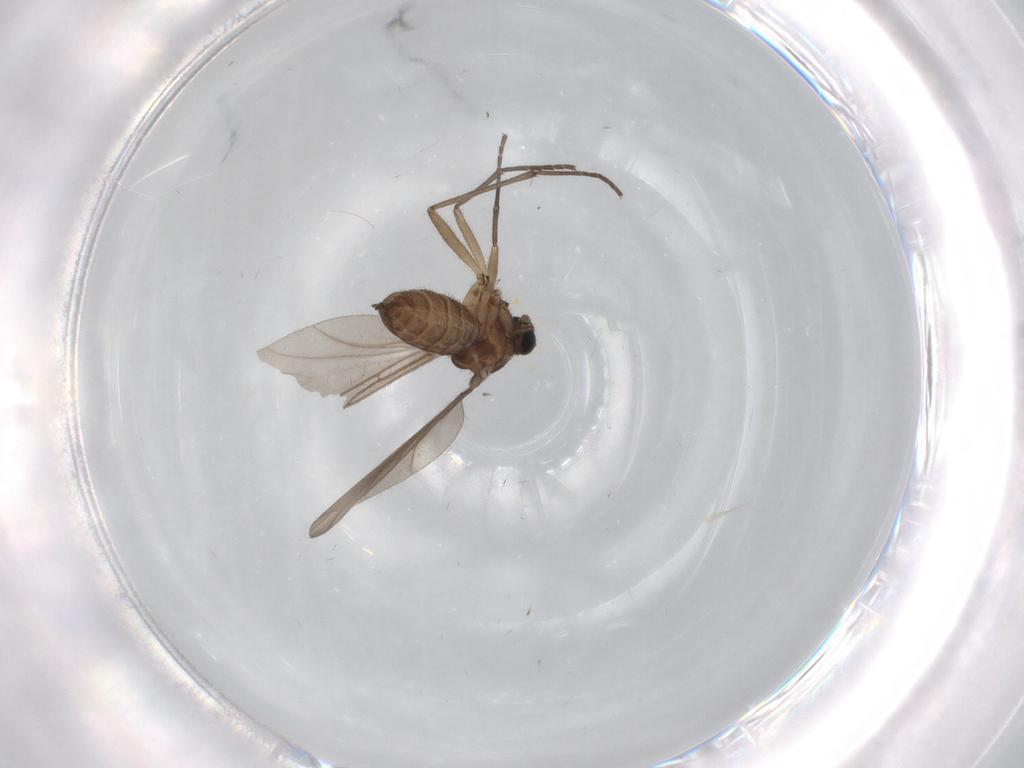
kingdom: Animalia
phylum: Arthropoda
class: Insecta
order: Diptera
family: Sciaridae
